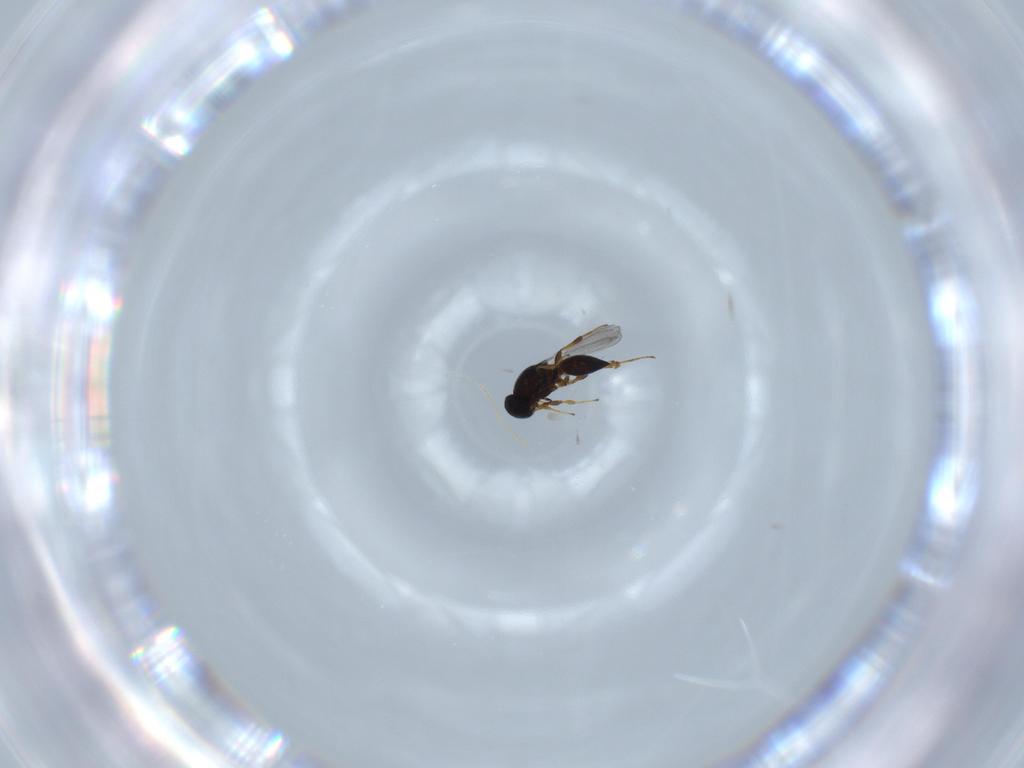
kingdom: Animalia
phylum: Arthropoda
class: Insecta
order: Hymenoptera
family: Platygastridae
